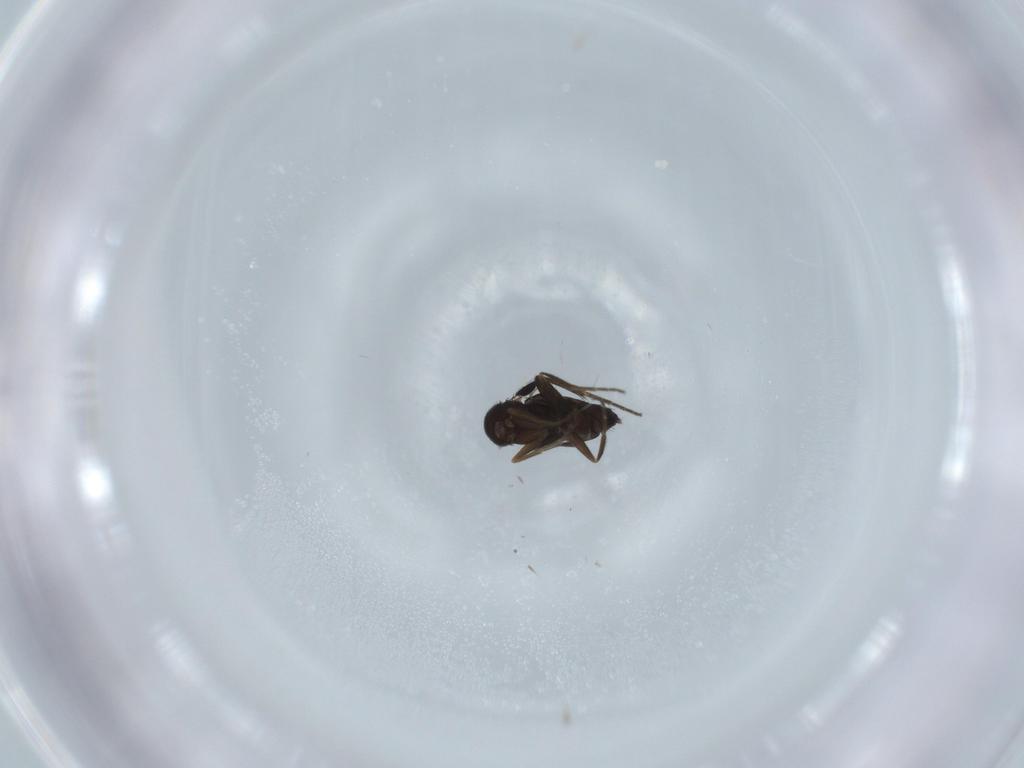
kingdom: Animalia
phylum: Arthropoda
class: Insecta
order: Diptera
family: Phoridae
